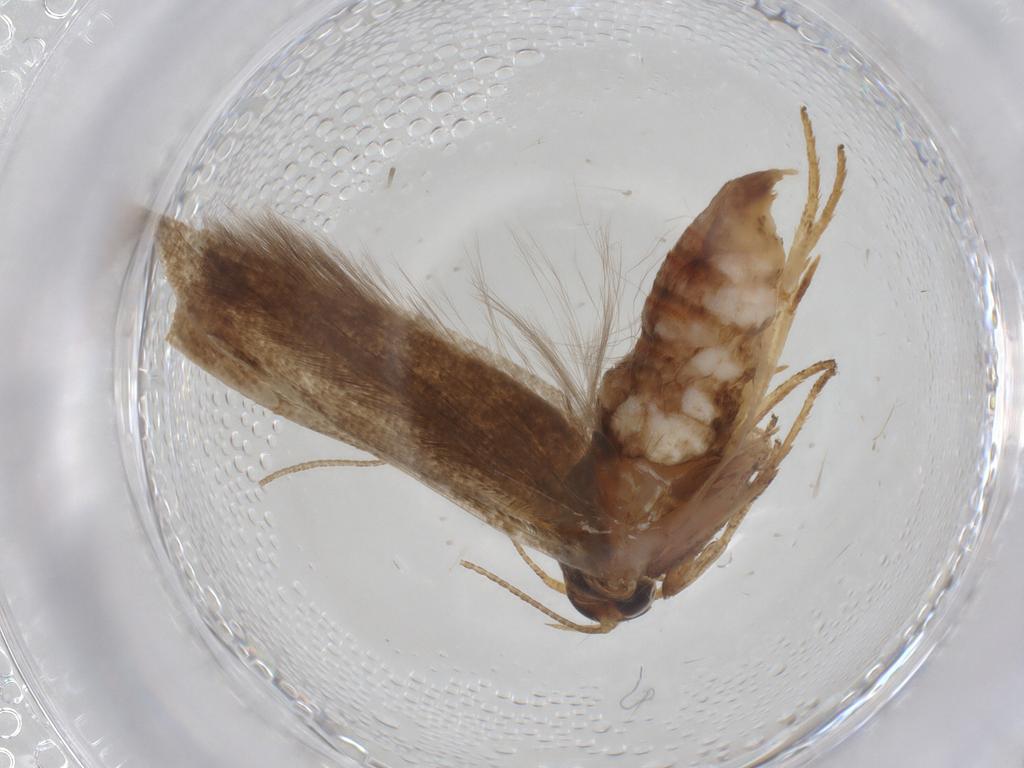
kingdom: Animalia
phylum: Arthropoda
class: Insecta
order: Lepidoptera
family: Blastobasidae
